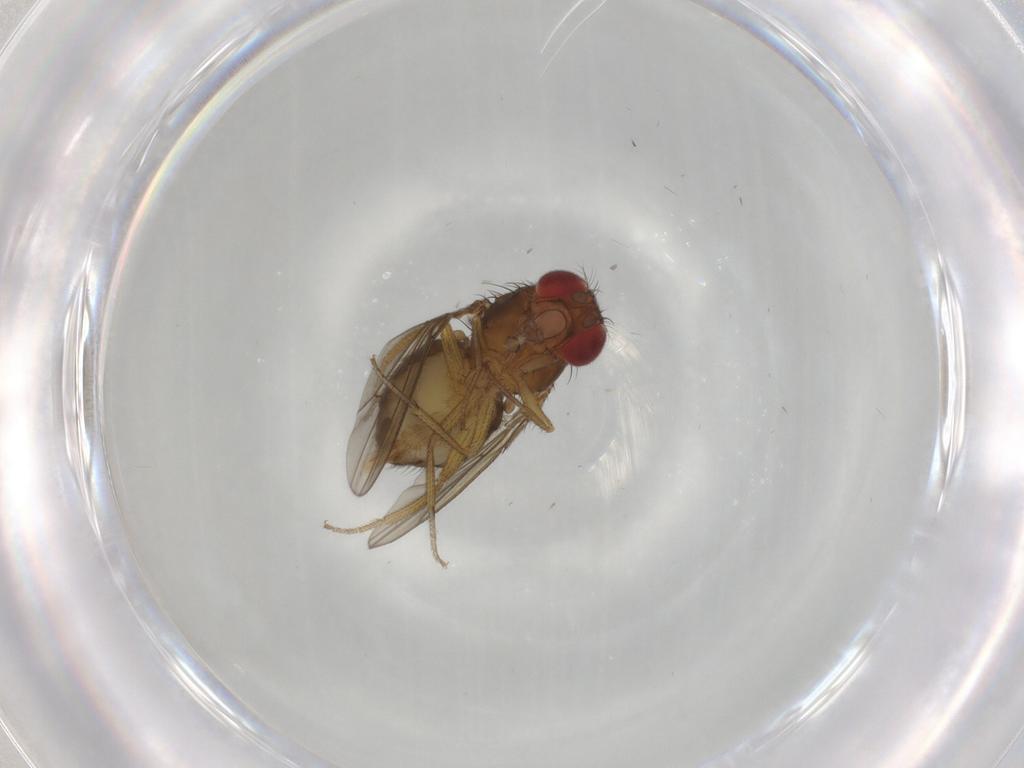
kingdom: Animalia
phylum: Arthropoda
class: Insecta
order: Diptera
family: Drosophilidae
